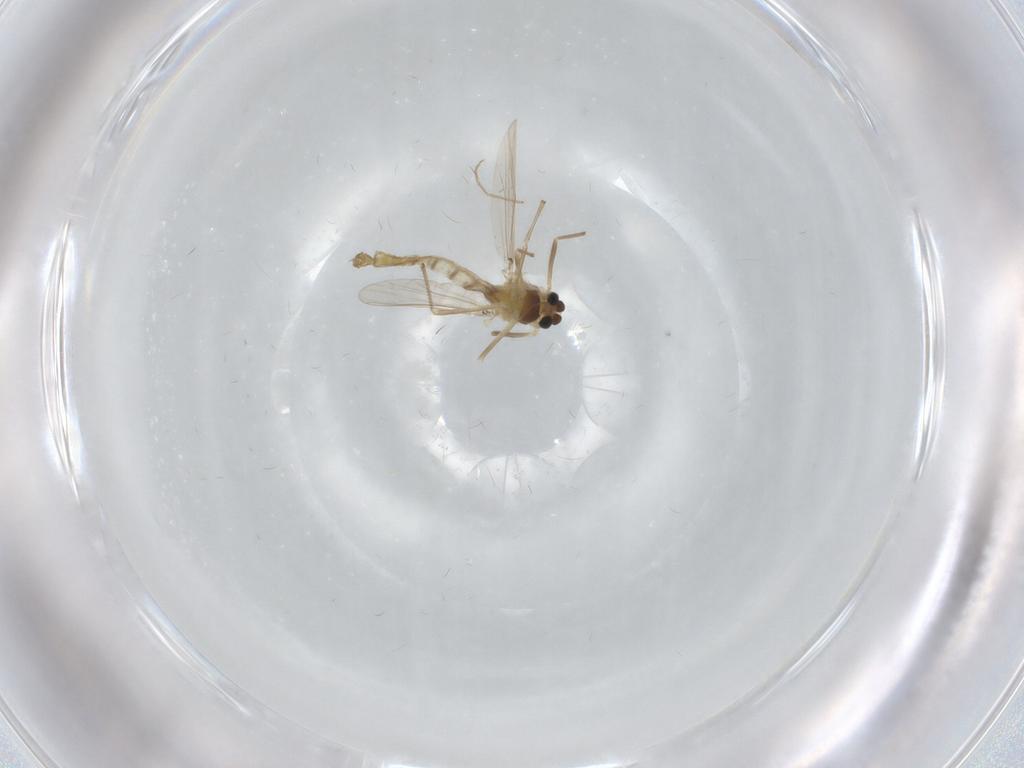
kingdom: Animalia
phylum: Arthropoda
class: Insecta
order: Diptera
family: Chironomidae
